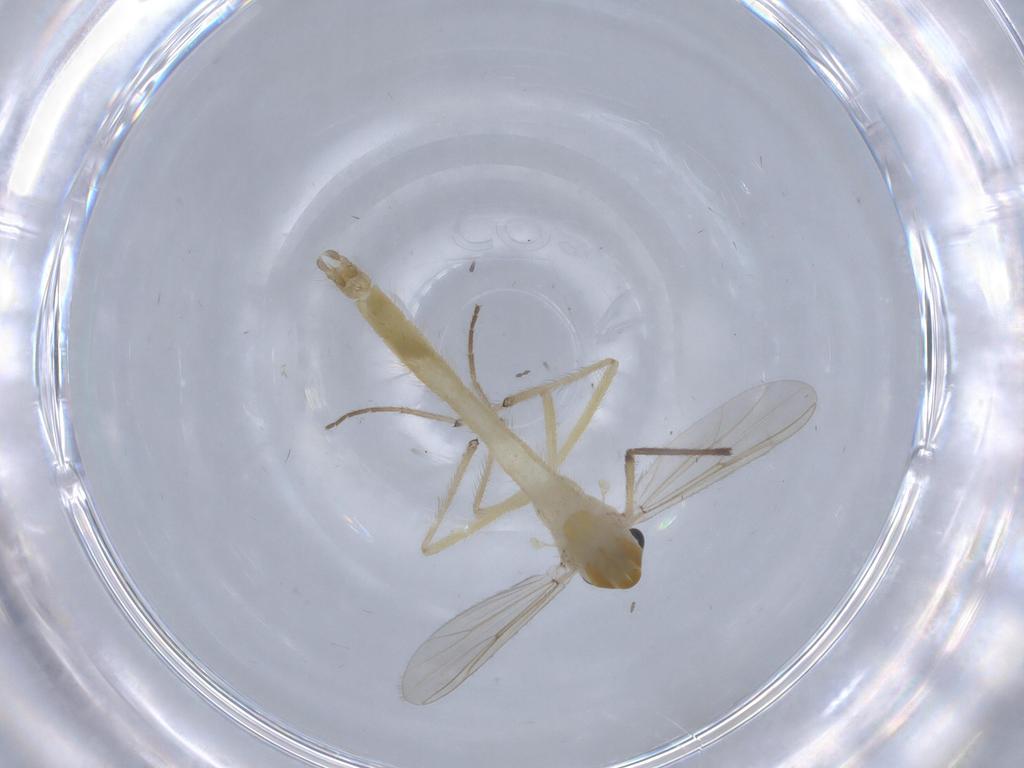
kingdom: Animalia
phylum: Arthropoda
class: Insecta
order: Diptera
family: Chironomidae
